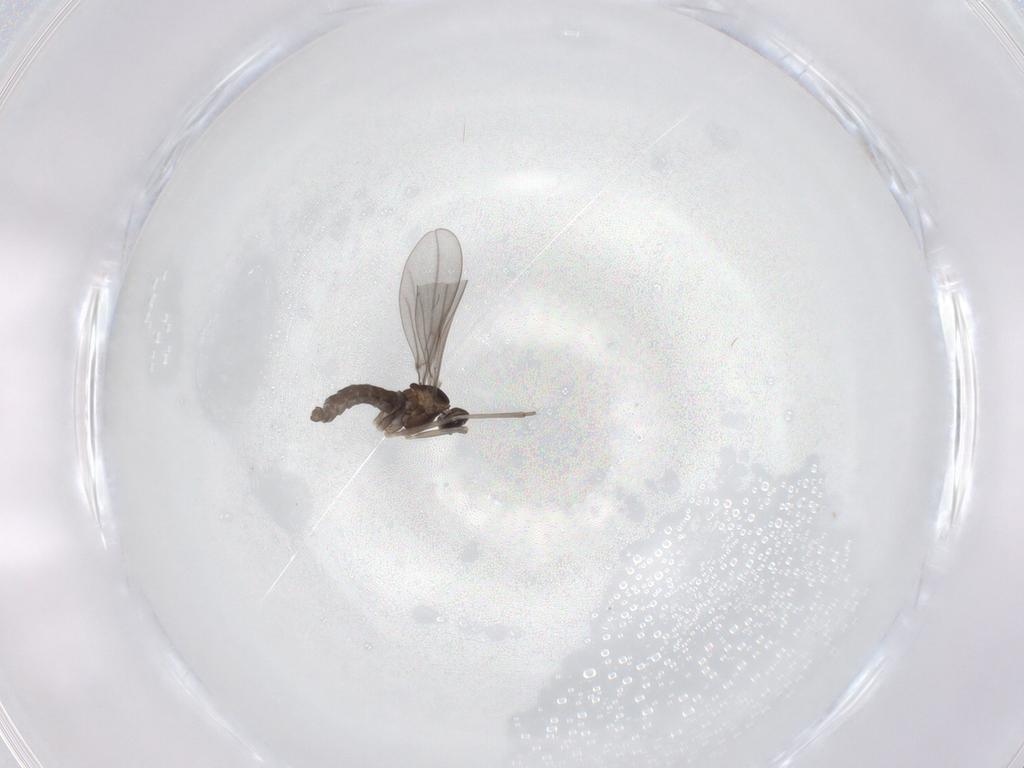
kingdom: Animalia
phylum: Arthropoda
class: Insecta
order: Diptera
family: Cecidomyiidae
